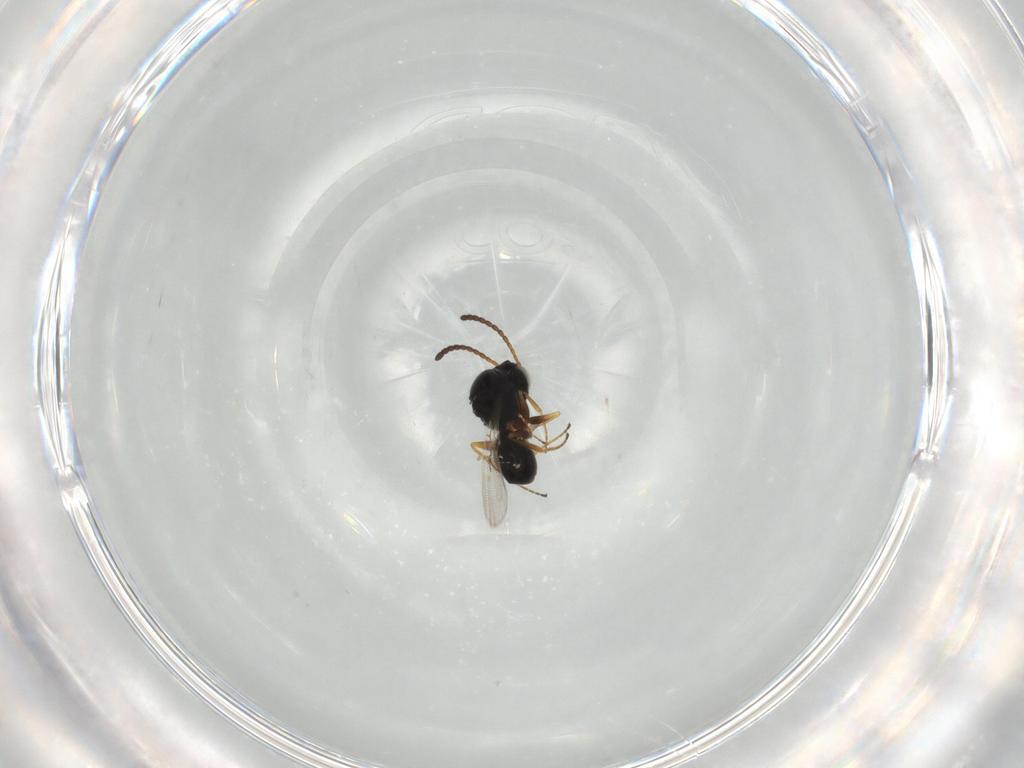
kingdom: Animalia
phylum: Arthropoda
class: Insecta
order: Hymenoptera
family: Figitidae
